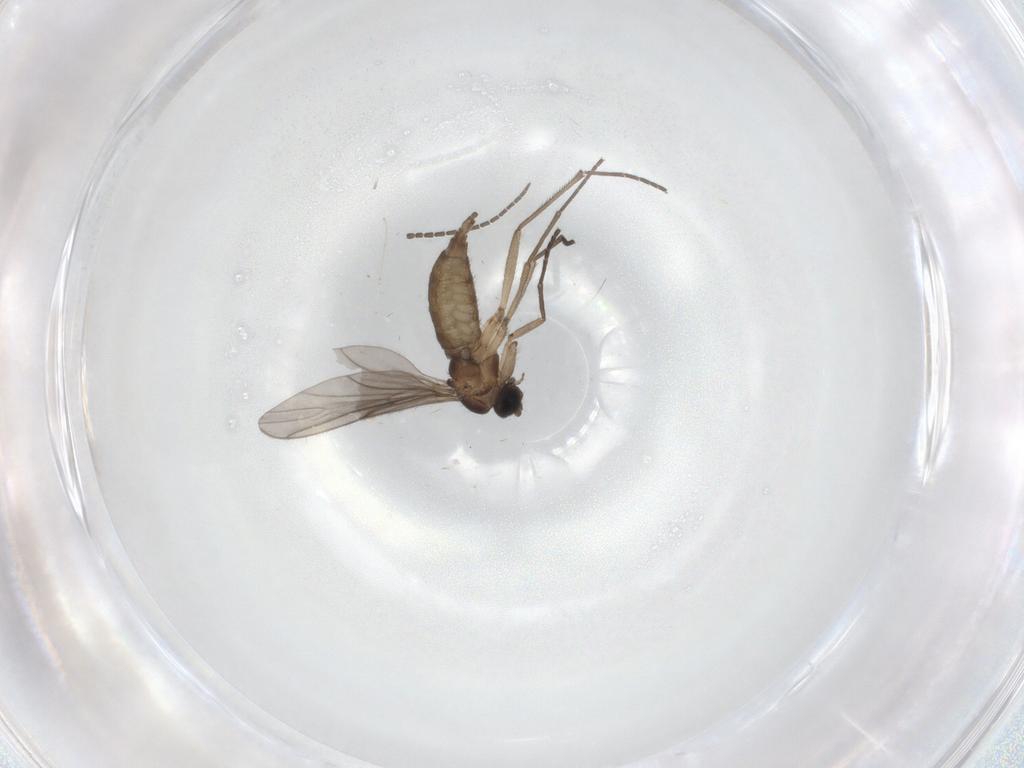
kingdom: Animalia
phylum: Arthropoda
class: Insecta
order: Diptera
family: Sciaridae
